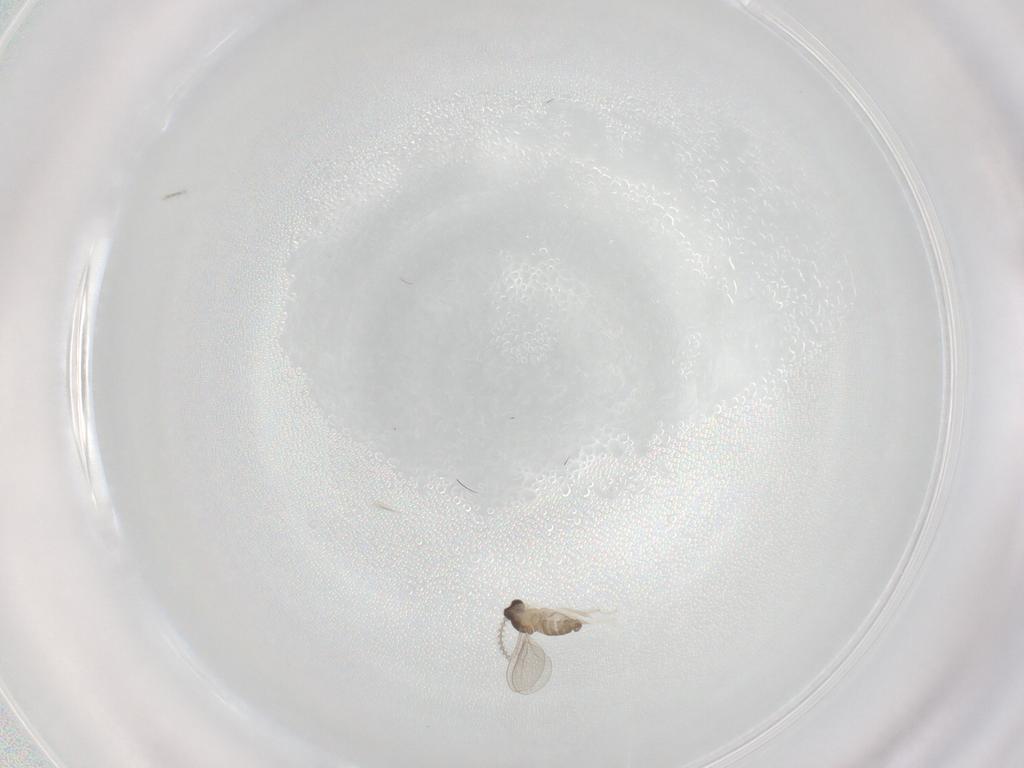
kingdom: Animalia
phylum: Arthropoda
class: Insecta
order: Diptera
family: Cecidomyiidae
